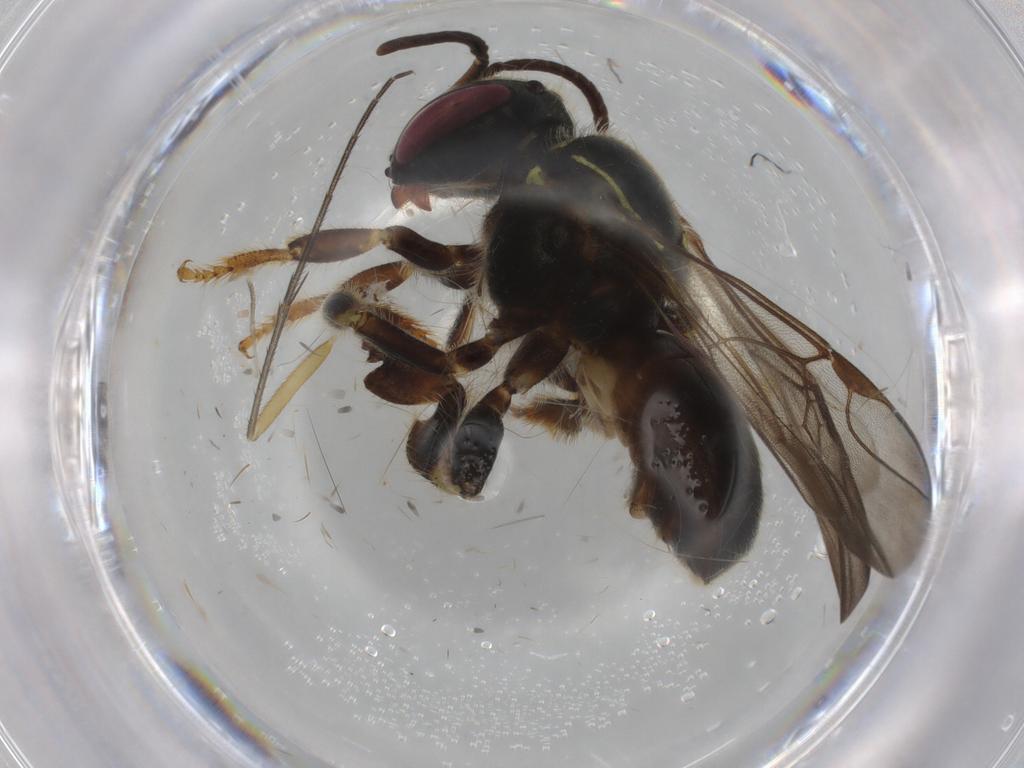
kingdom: Animalia
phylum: Arthropoda
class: Insecta
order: Hymenoptera
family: Apidae
